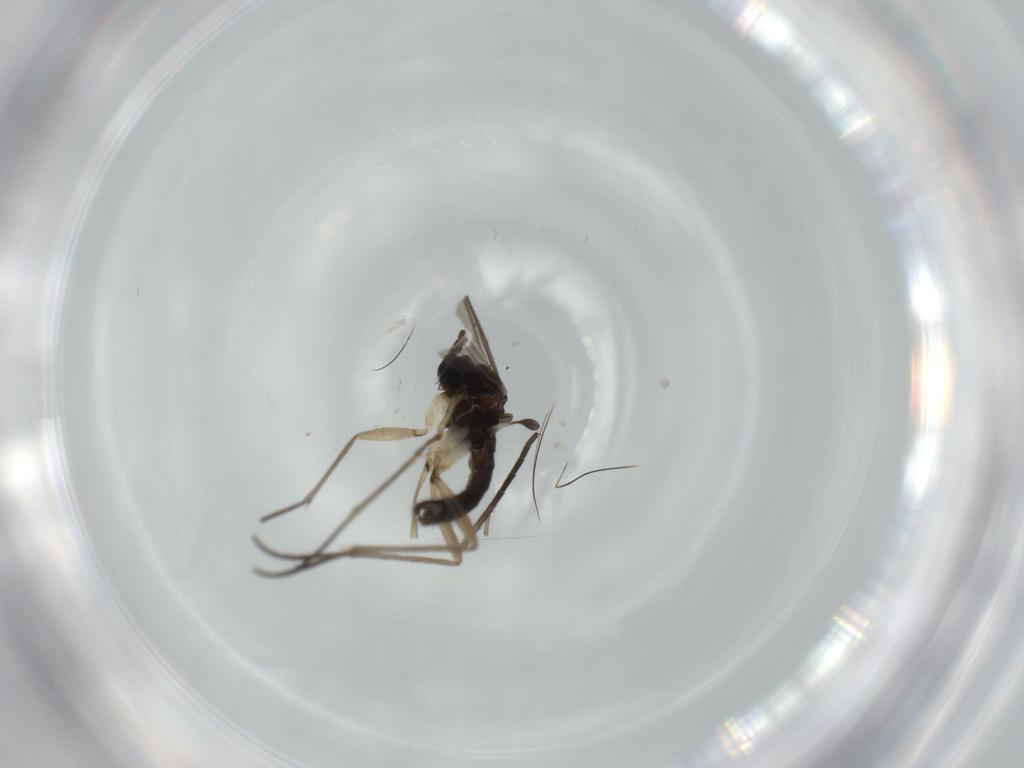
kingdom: Animalia
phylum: Arthropoda
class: Insecta
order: Diptera
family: Sciaridae
